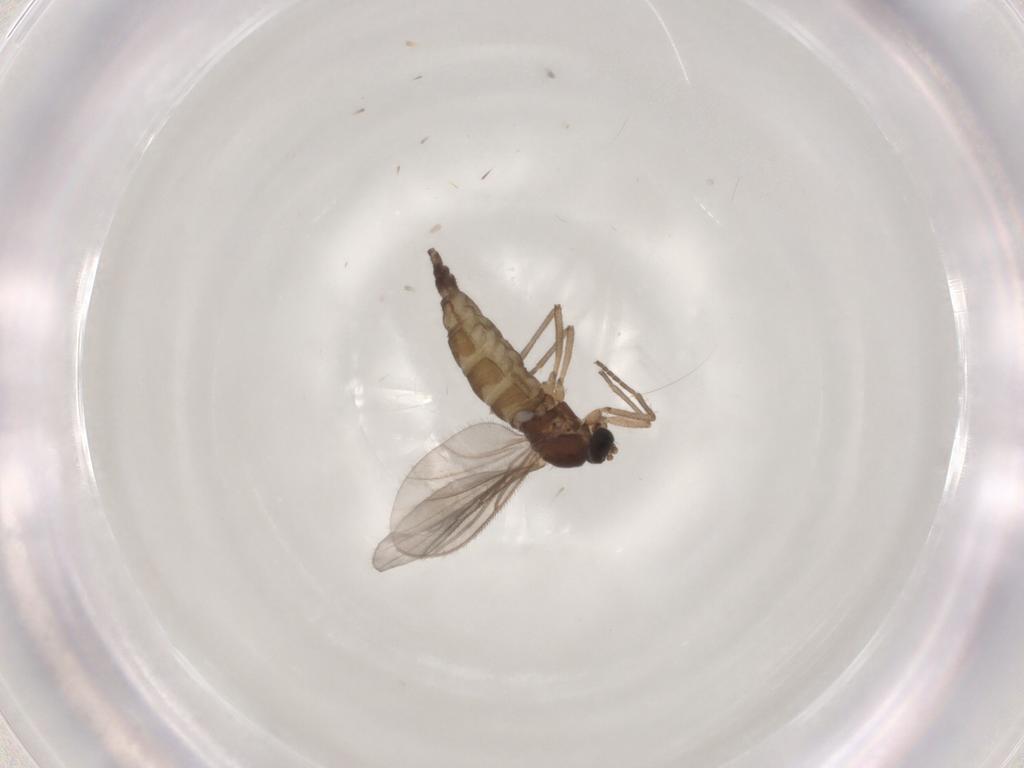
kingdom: Animalia
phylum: Arthropoda
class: Insecta
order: Diptera
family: Sciaridae
